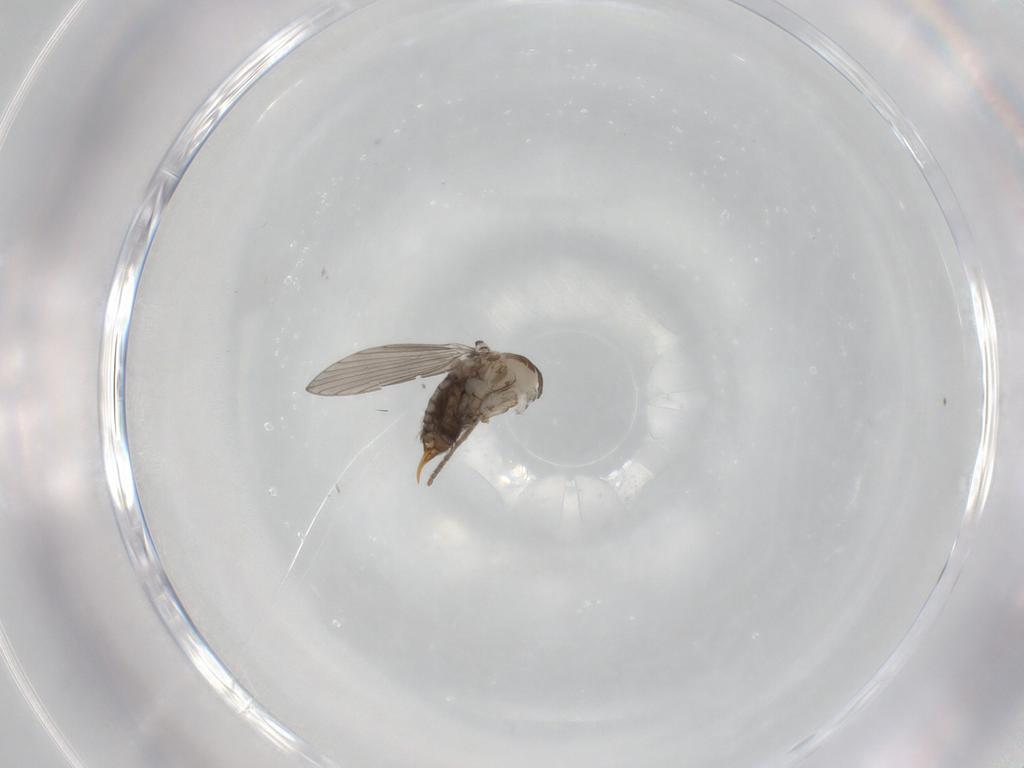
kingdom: Animalia
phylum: Arthropoda
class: Insecta
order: Diptera
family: Psychodidae
